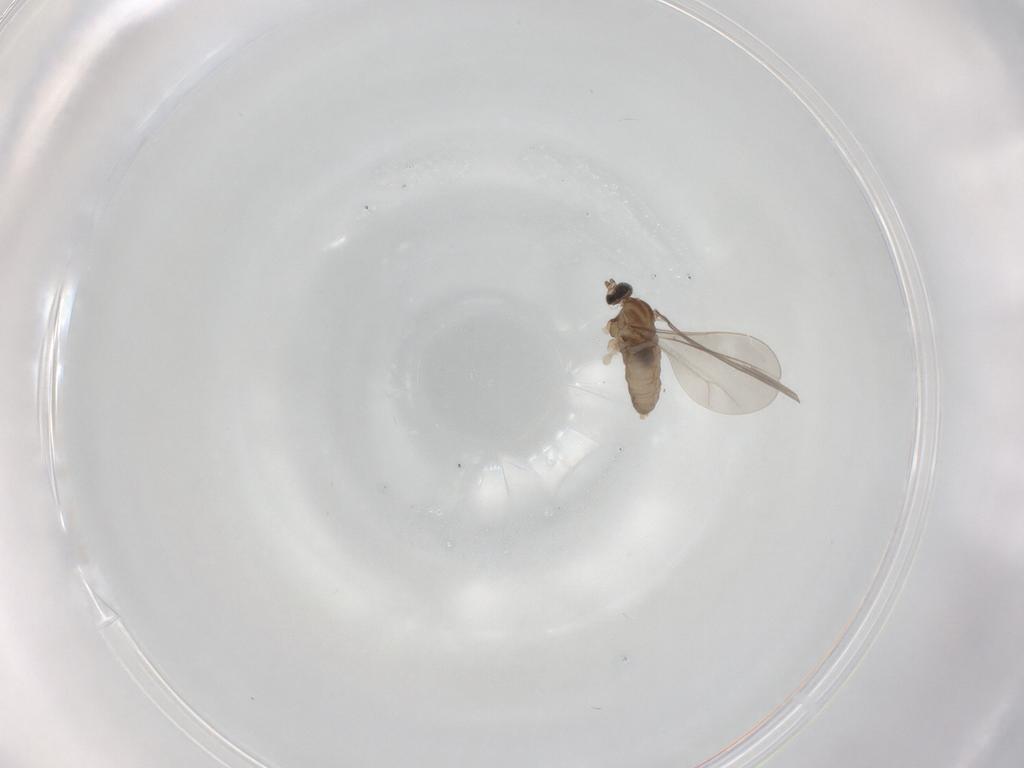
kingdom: Animalia
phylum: Arthropoda
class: Insecta
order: Diptera
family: Cecidomyiidae
